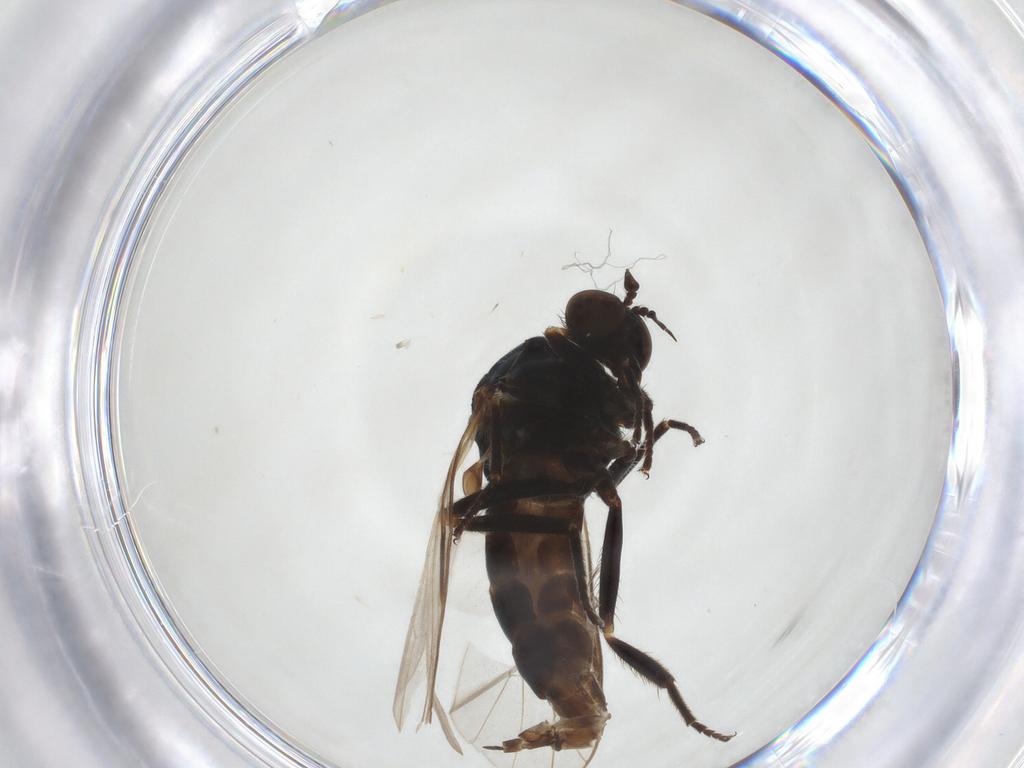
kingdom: Animalia
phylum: Arthropoda
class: Insecta
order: Diptera
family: Empididae
